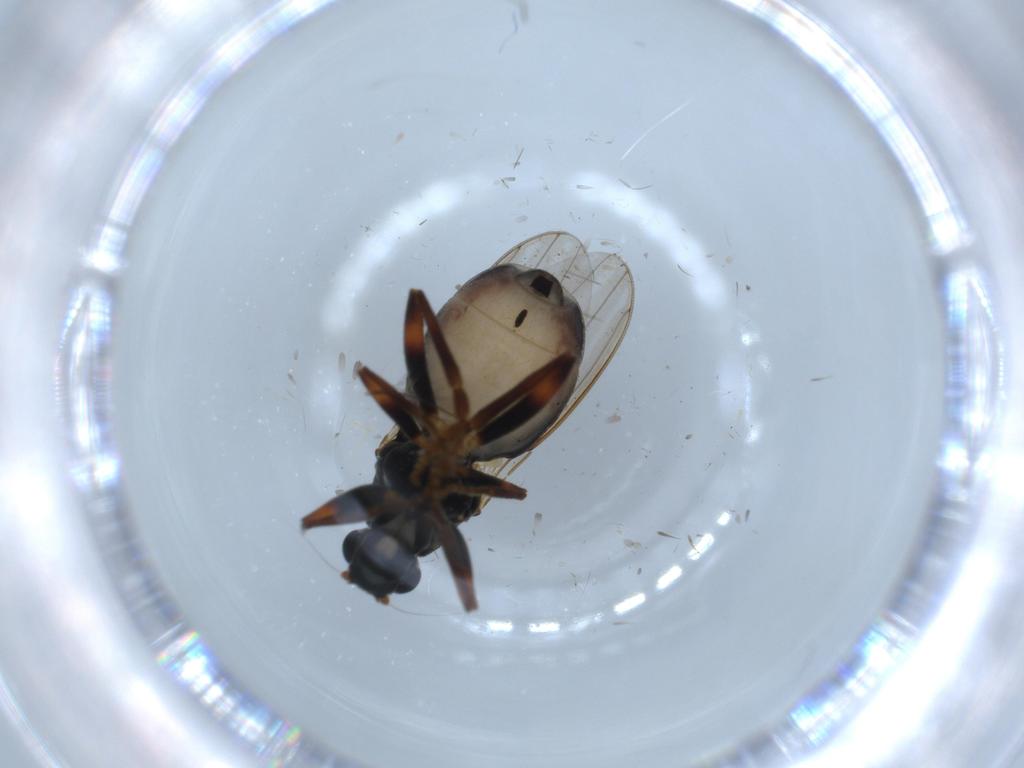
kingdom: Animalia
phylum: Arthropoda
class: Insecta
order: Diptera
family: Sphaeroceridae
